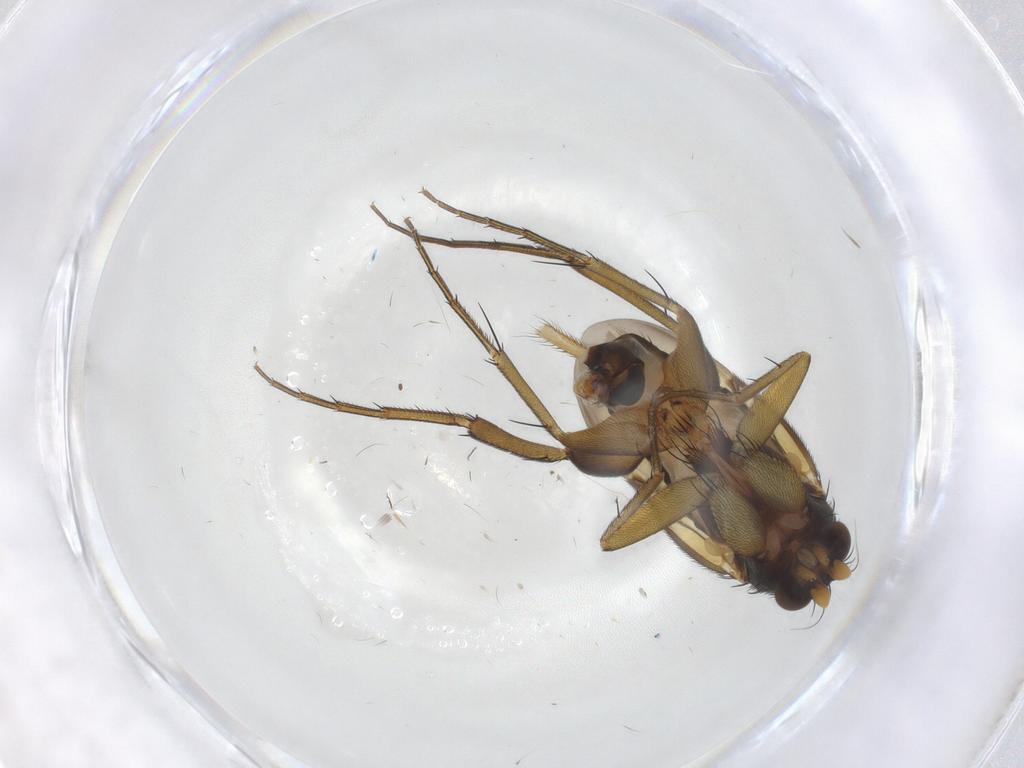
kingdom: Animalia
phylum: Arthropoda
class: Insecta
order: Diptera
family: Phoridae
